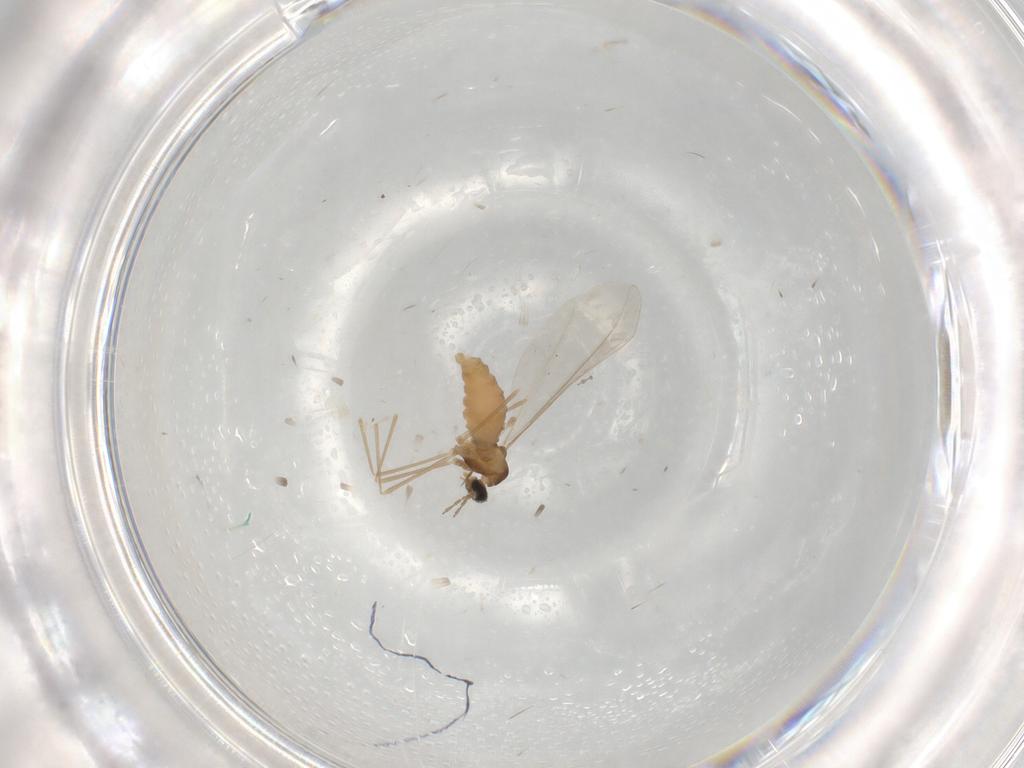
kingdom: Animalia
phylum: Arthropoda
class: Insecta
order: Diptera
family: Cecidomyiidae
